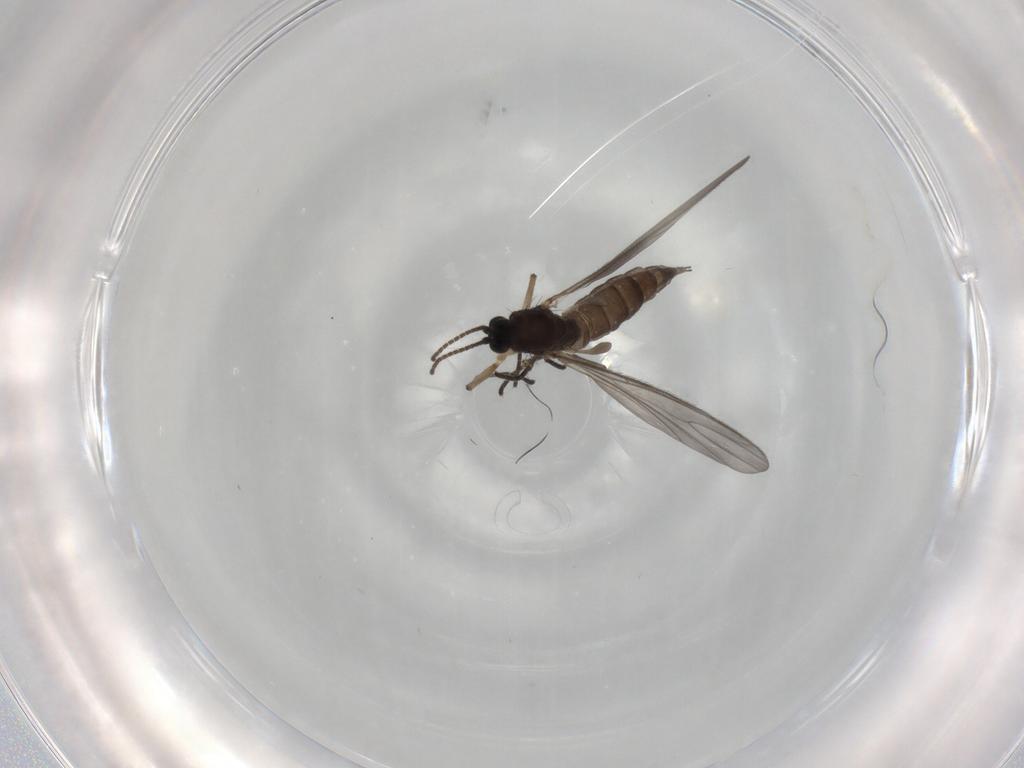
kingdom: Animalia
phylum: Arthropoda
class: Insecta
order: Diptera
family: Sciaridae
